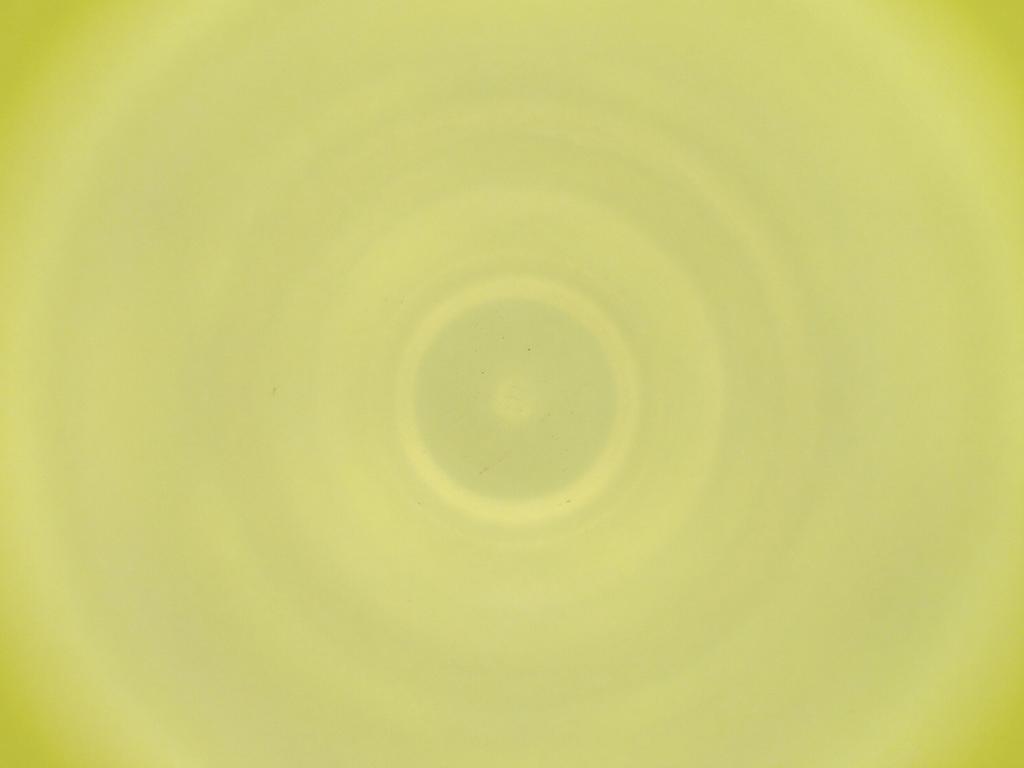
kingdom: Animalia
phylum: Arthropoda
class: Insecta
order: Diptera
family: Cecidomyiidae
